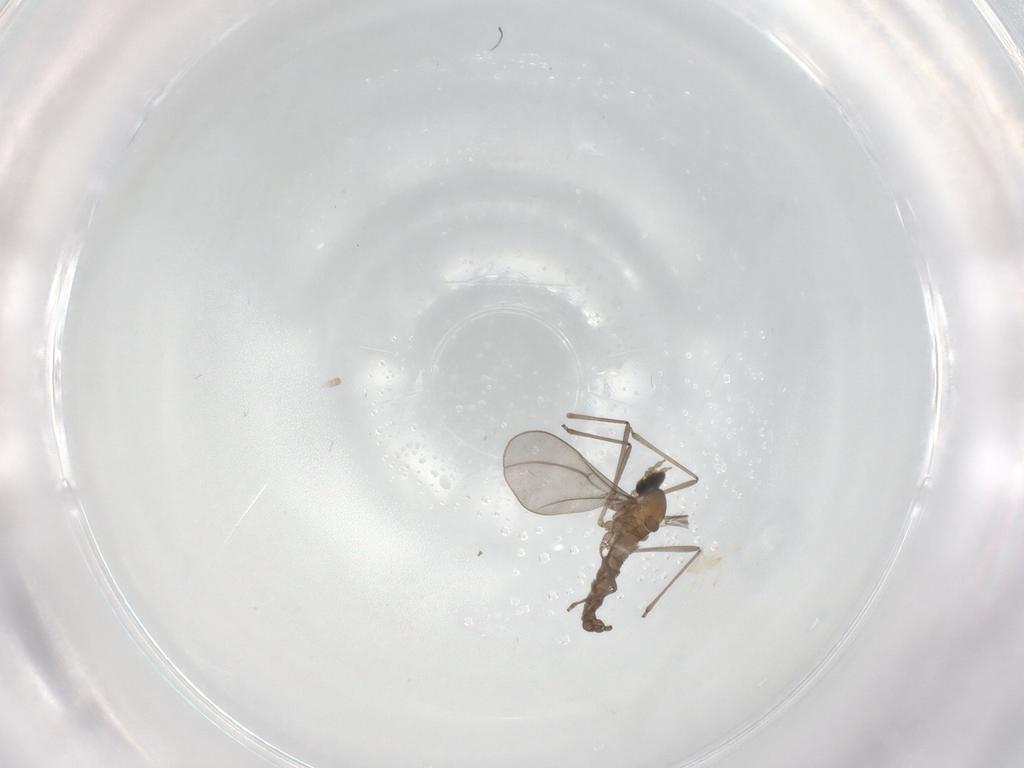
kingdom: Animalia
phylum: Arthropoda
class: Insecta
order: Diptera
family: Cecidomyiidae
